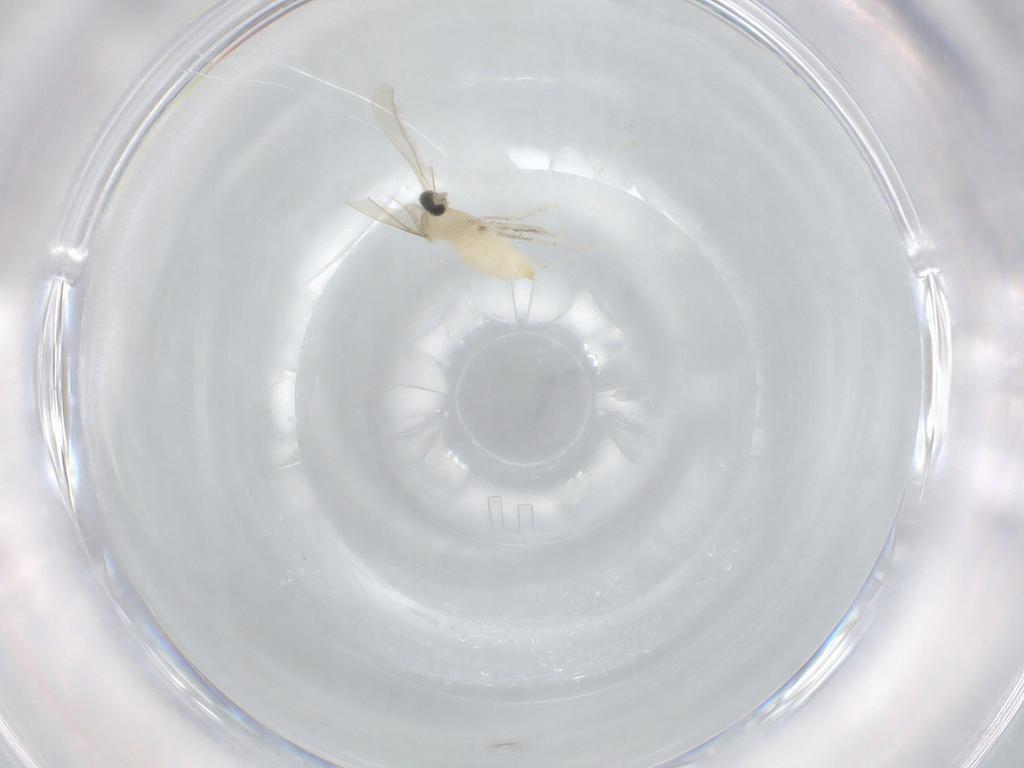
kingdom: Animalia
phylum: Arthropoda
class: Insecta
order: Diptera
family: Cecidomyiidae
